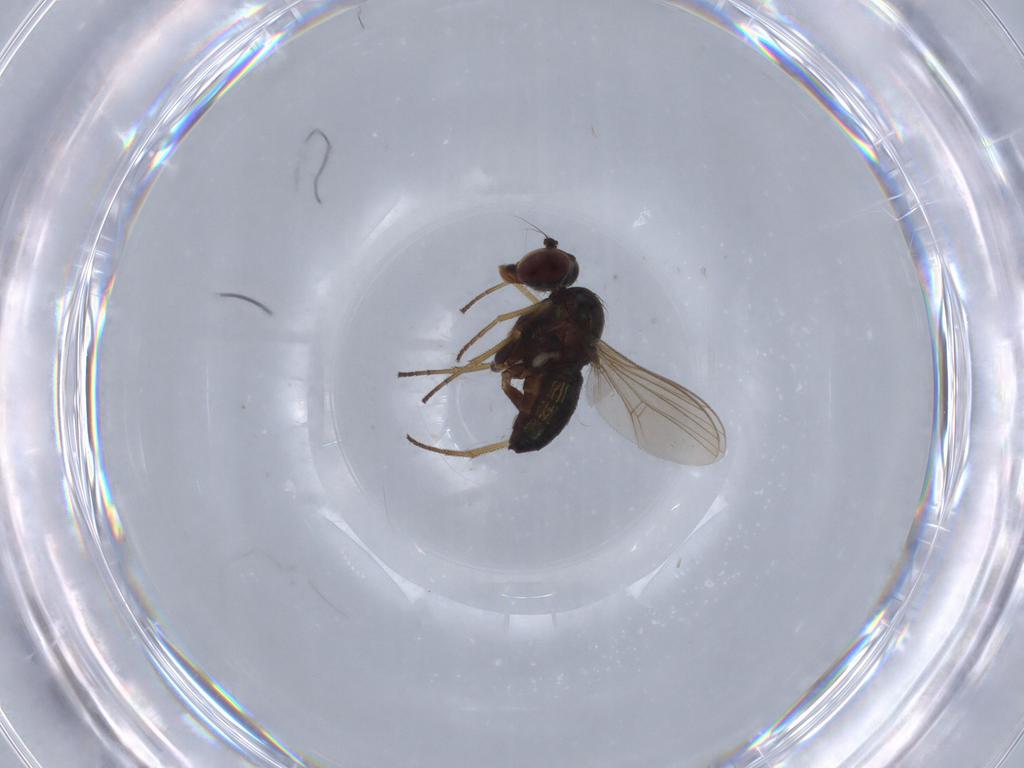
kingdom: Animalia
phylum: Arthropoda
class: Insecta
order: Diptera
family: Dolichopodidae
